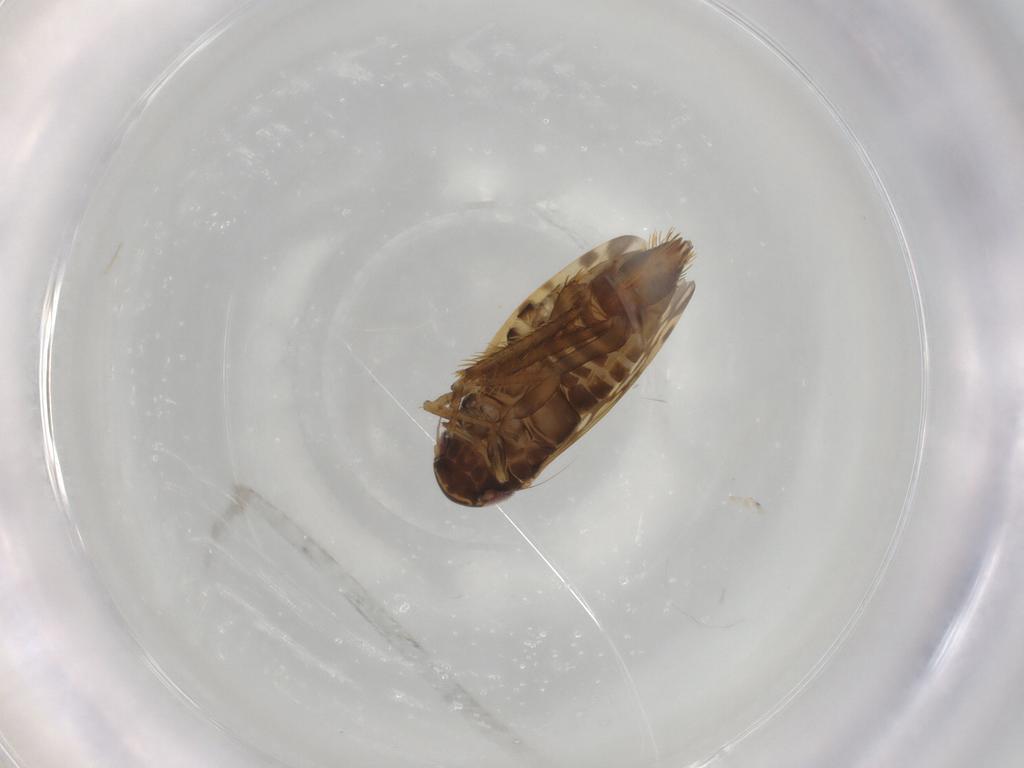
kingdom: Animalia
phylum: Arthropoda
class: Insecta
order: Hemiptera
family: Cicadellidae
